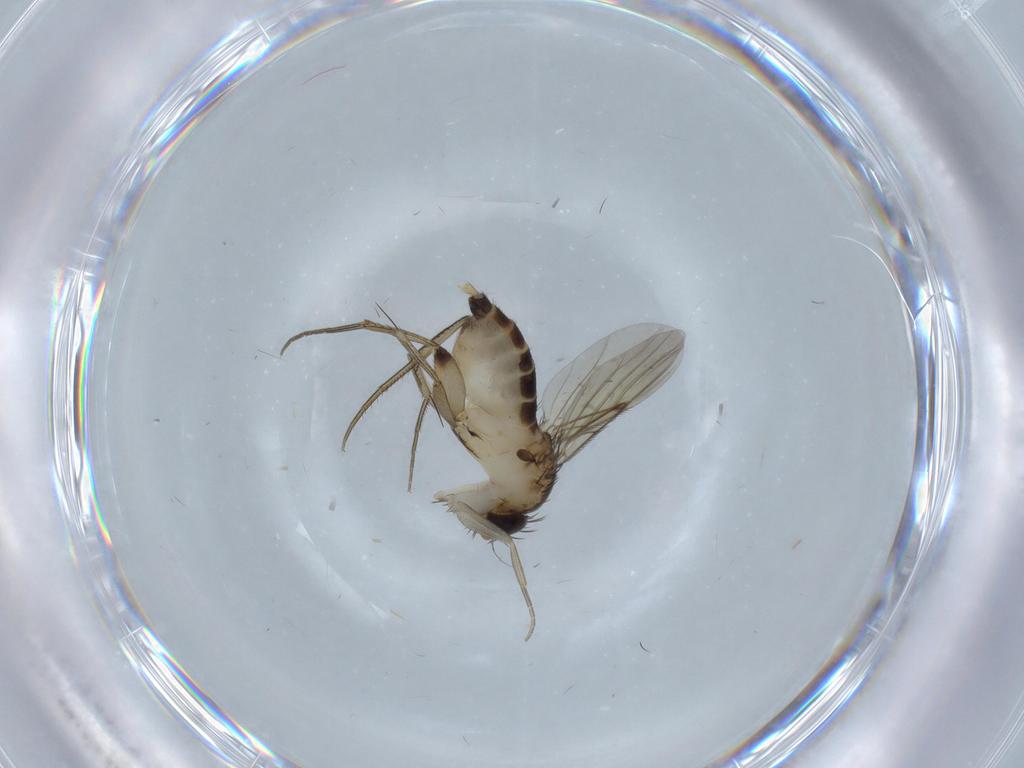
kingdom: Animalia
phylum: Arthropoda
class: Insecta
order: Diptera
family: Phoridae
